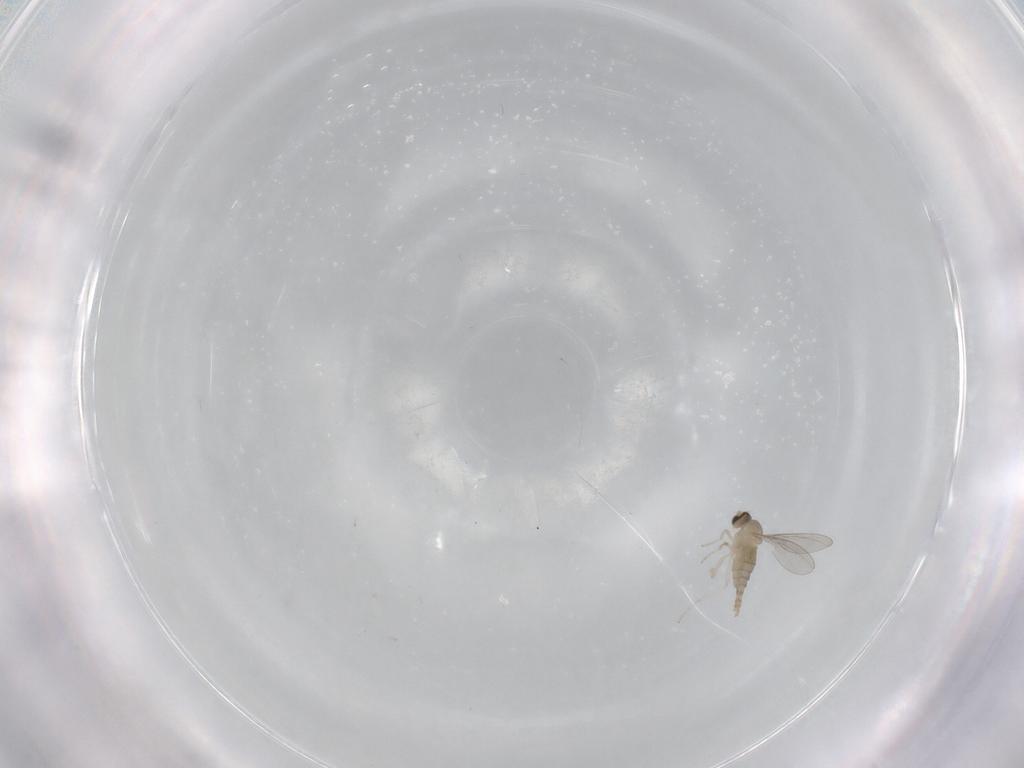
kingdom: Animalia
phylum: Arthropoda
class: Insecta
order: Diptera
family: Cecidomyiidae
